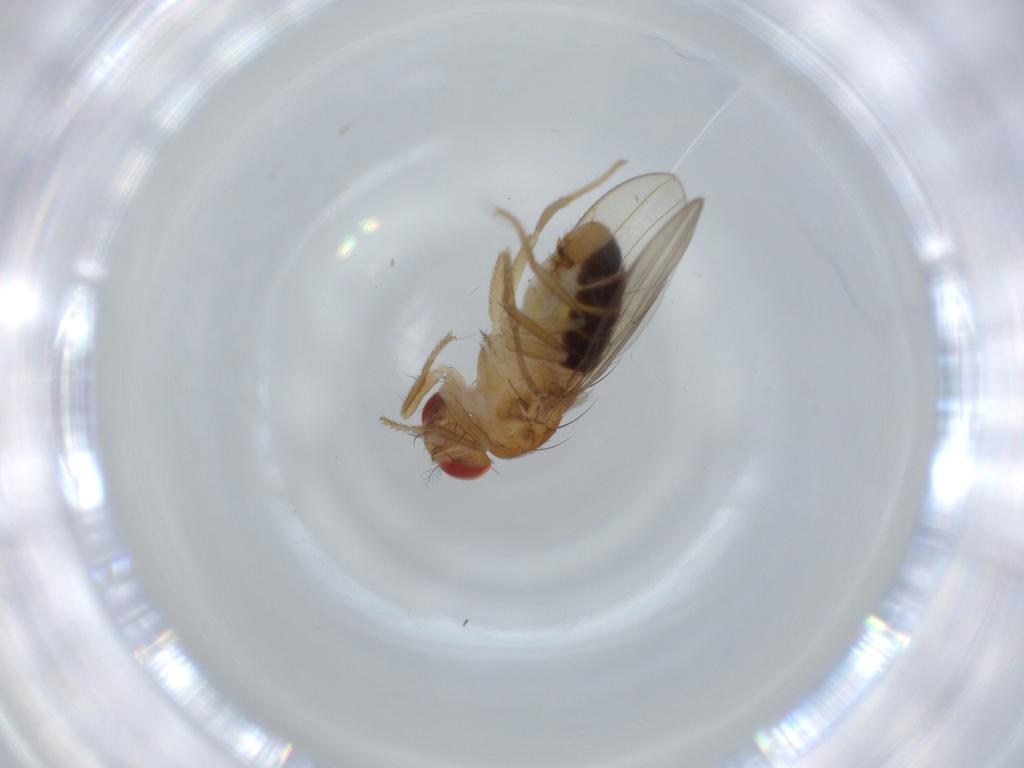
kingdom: Animalia
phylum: Arthropoda
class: Insecta
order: Diptera
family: Drosophilidae
